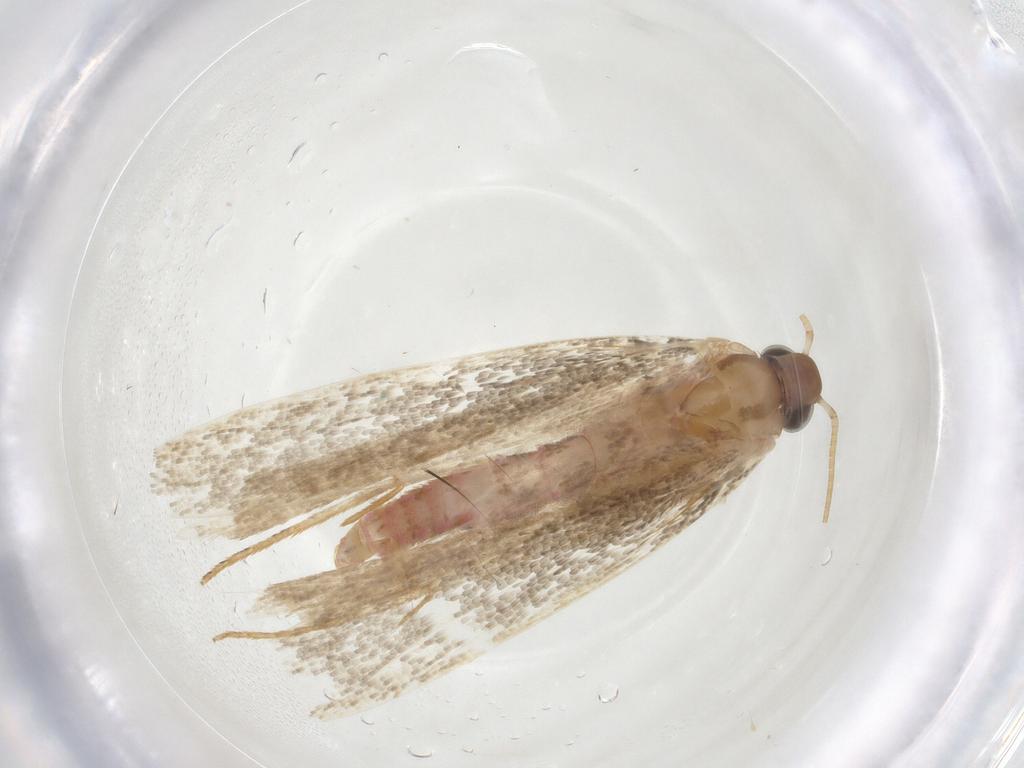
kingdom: Animalia
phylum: Arthropoda
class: Insecta
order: Lepidoptera
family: Crambidae
